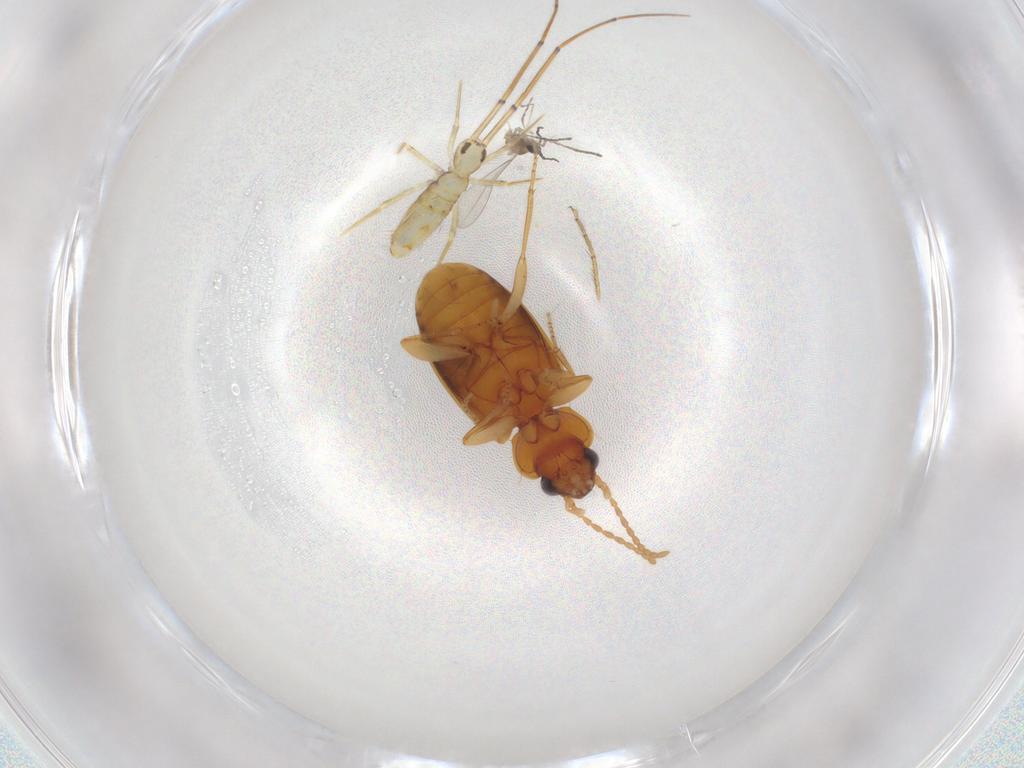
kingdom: Animalia
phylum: Arthropoda
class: Insecta
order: Coleoptera
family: Carabidae
